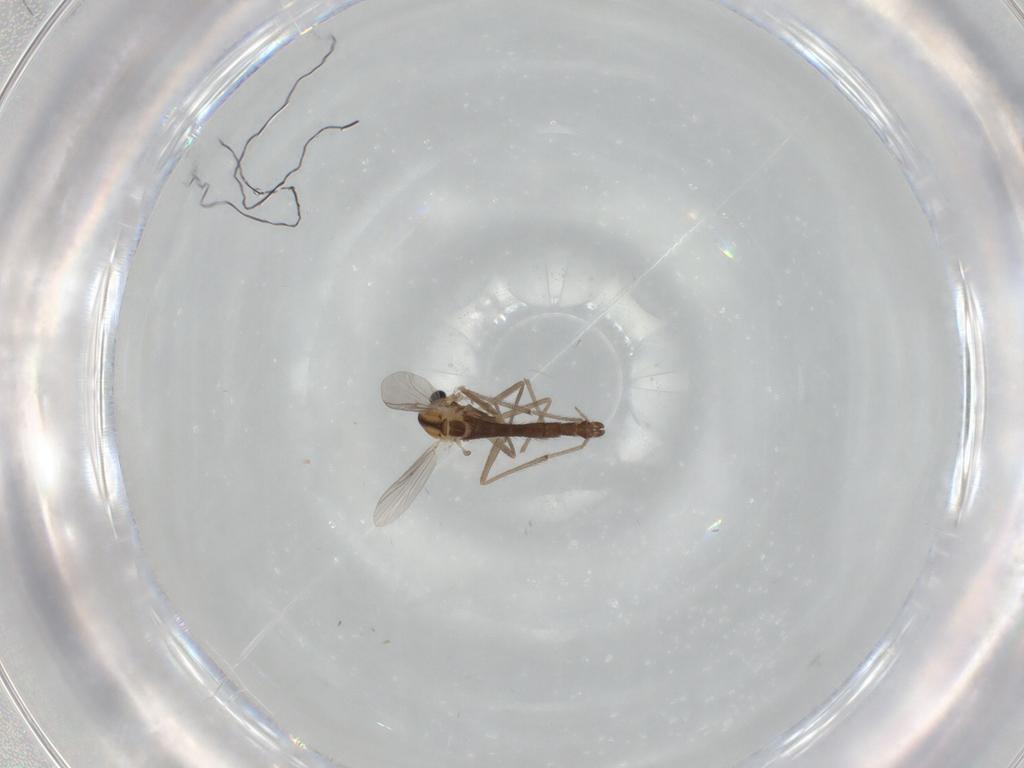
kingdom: Animalia
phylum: Arthropoda
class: Insecta
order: Diptera
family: Chironomidae
